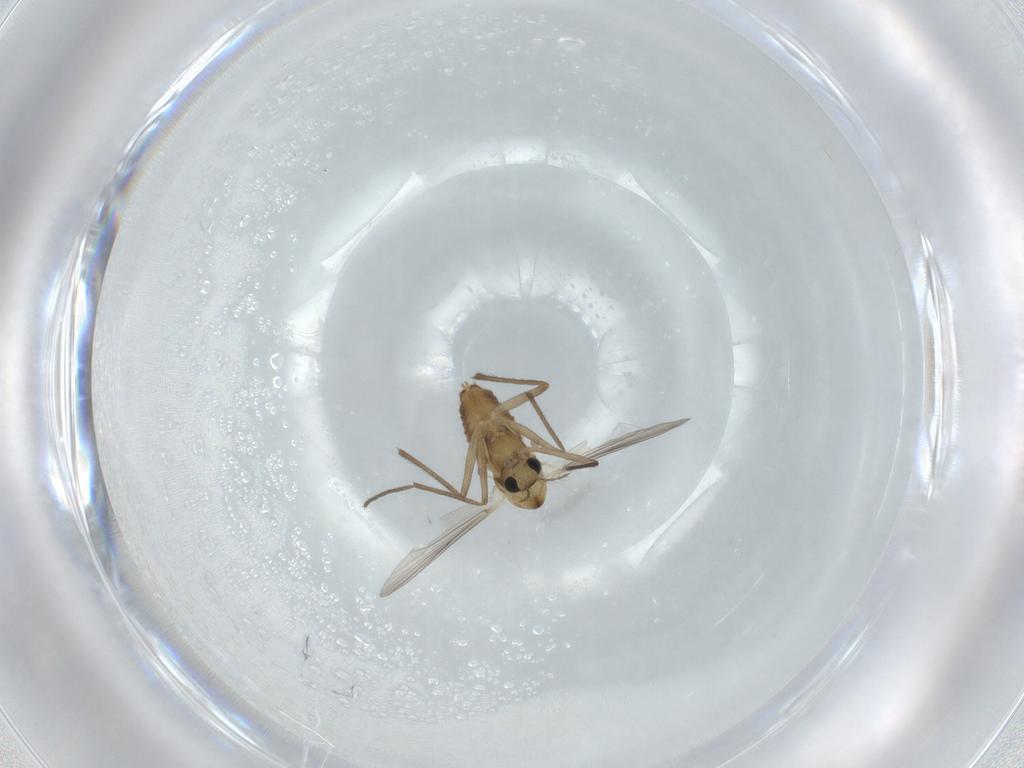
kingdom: Animalia
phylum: Arthropoda
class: Insecta
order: Diptera
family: Chironomidae
